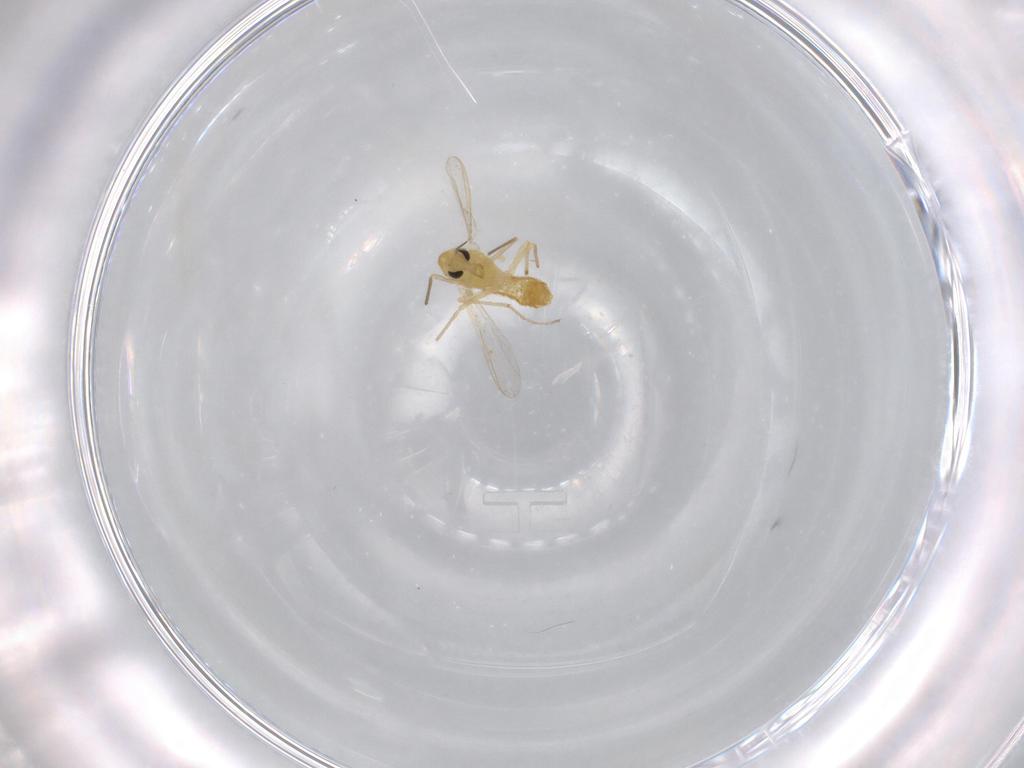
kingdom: Animalia
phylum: Arthropoda
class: Insecta
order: Diptera
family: Chironomidae
